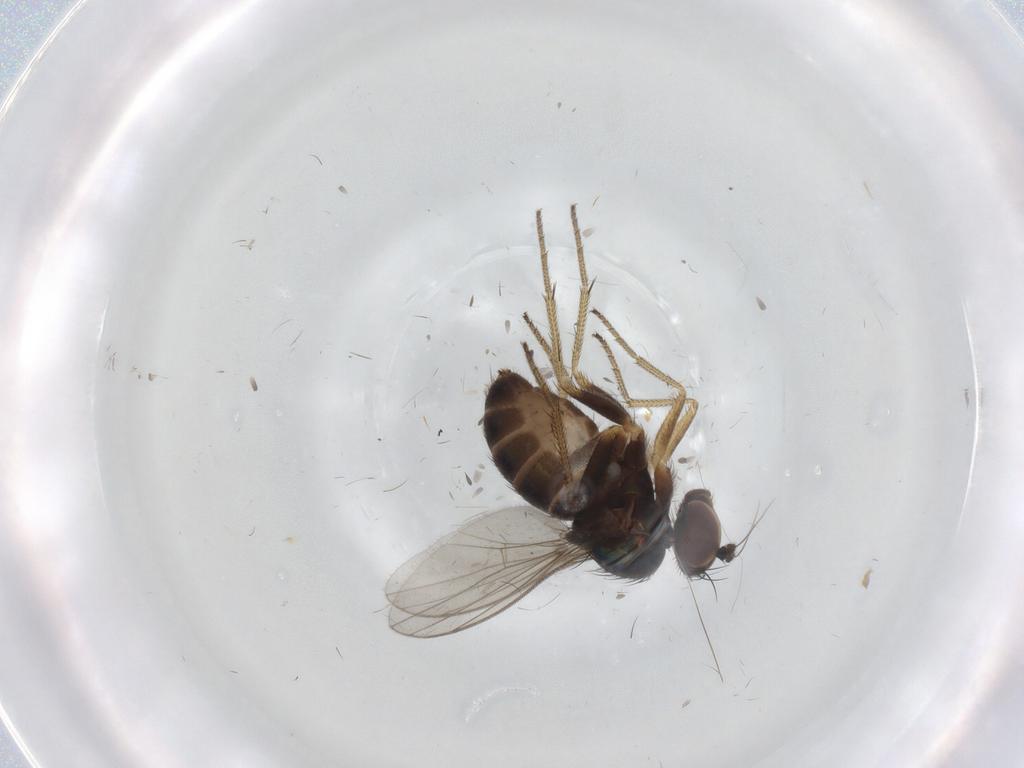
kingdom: Animalia
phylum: Arthropoda
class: Insecta
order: Diptera
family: Dolichopodidae
